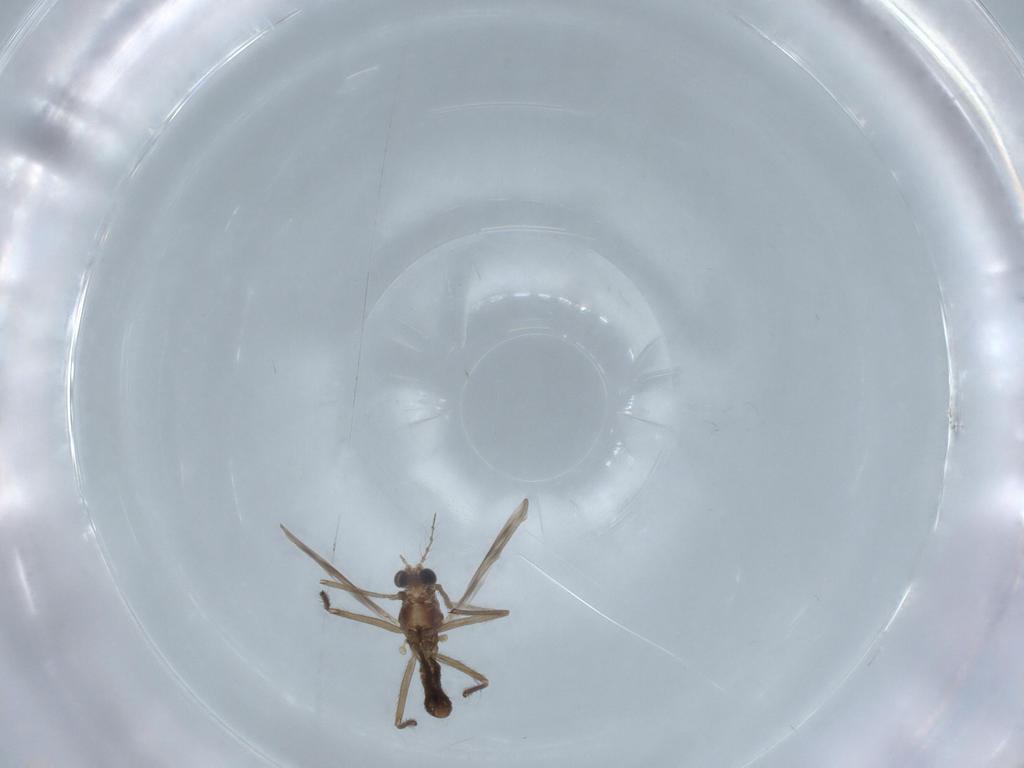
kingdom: Animalia
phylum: Arthropoda
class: Insecta
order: Diptera
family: Chironomidae
